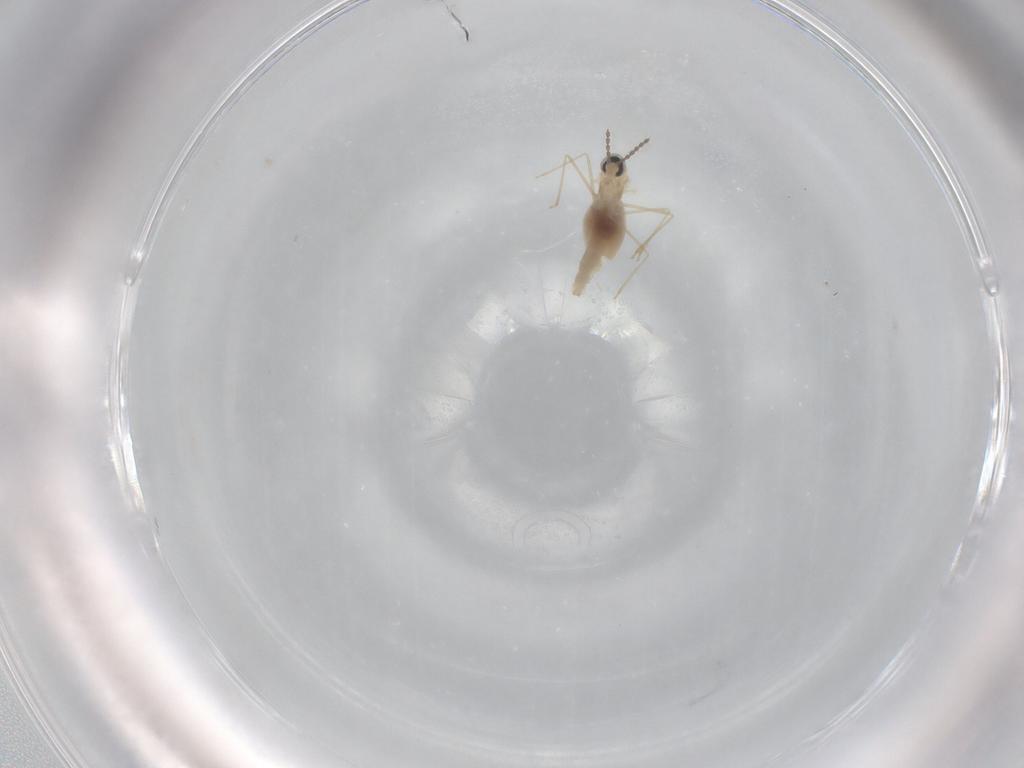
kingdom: Animalia
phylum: Arthropoda
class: Insecta
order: Diptera
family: Cecidomyiidae
